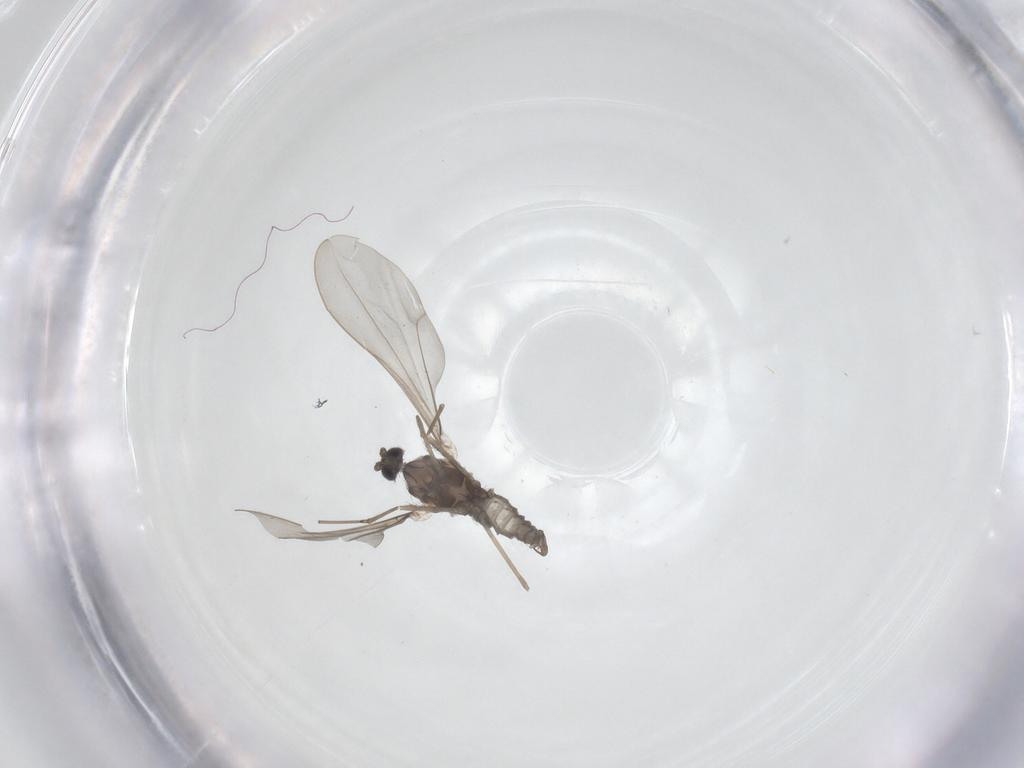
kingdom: Animalia
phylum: Arthropoda
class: Insecta
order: Diptera
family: Cecidomyiidae
